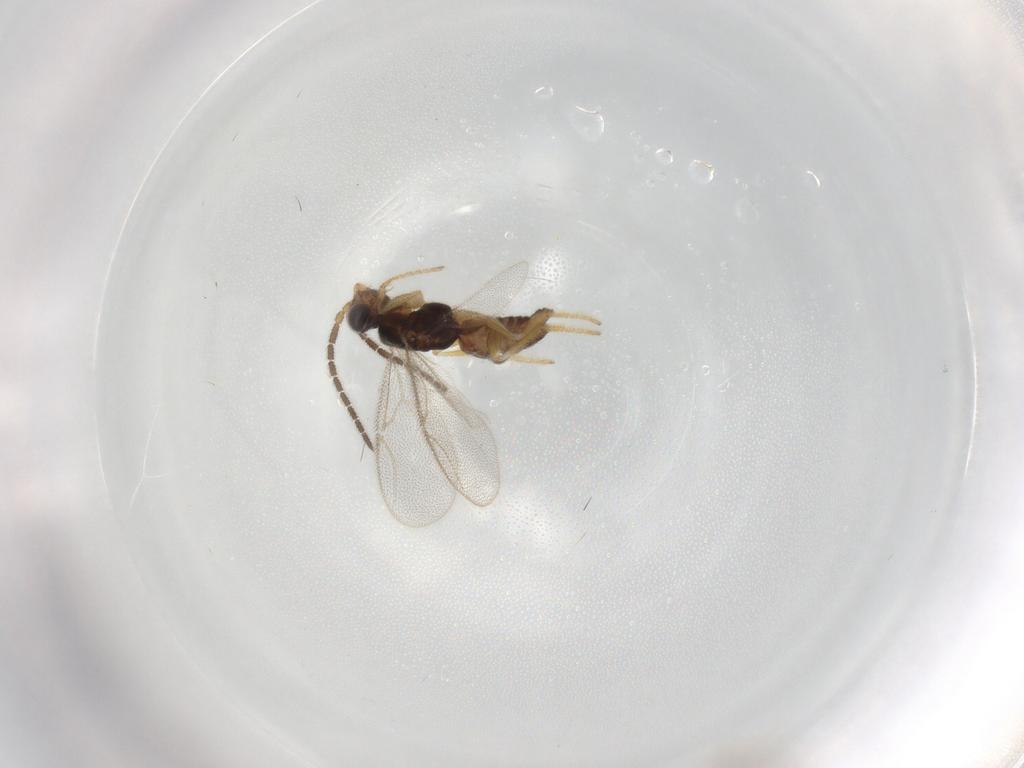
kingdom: Animalia
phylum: Arthropoda
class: Insecta
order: Hymenoptera
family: Dryinidae
